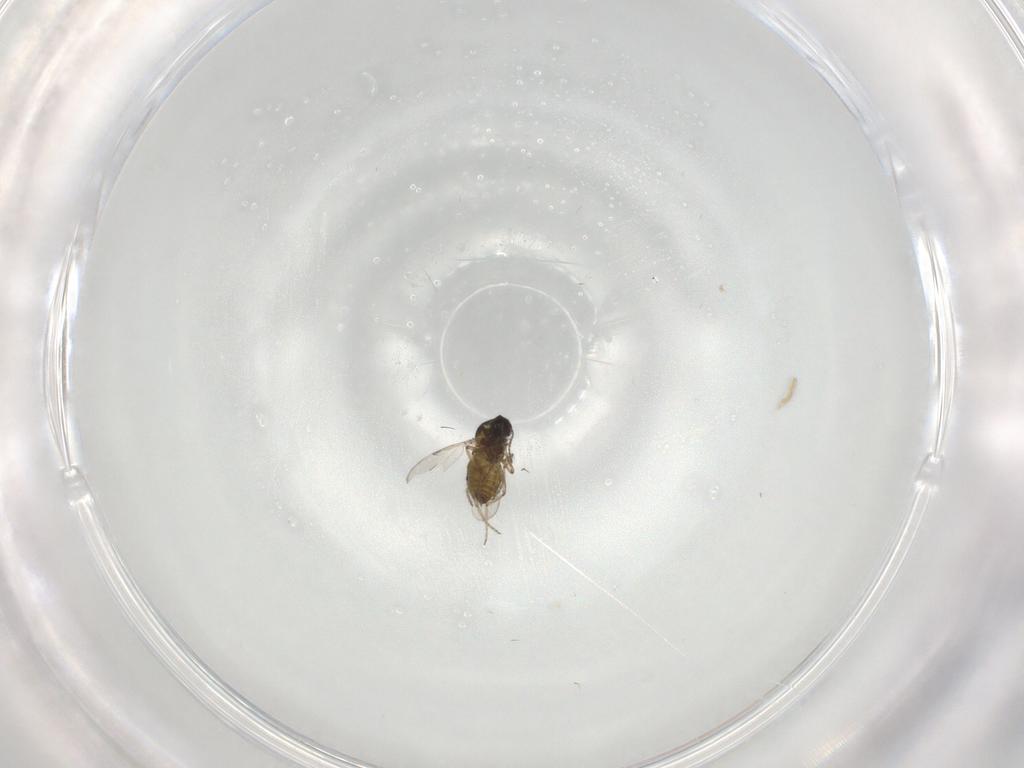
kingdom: Animalia
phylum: Arthropoda
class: Insecta
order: Diptera
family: Ceratopogonidae
